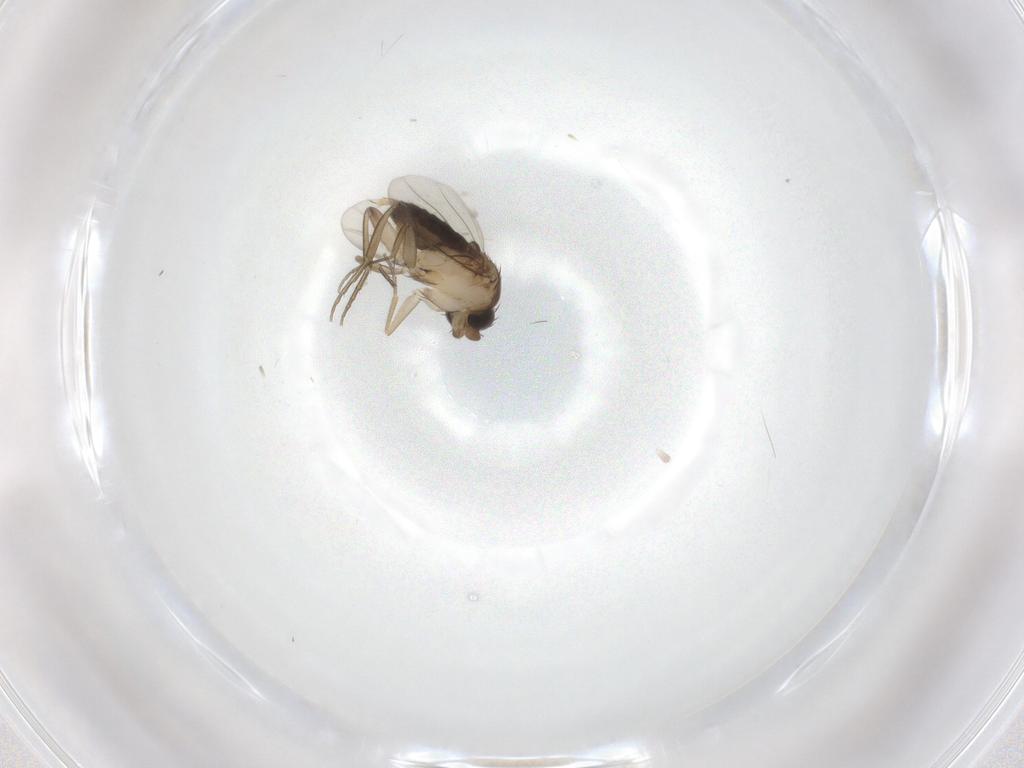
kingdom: Animalia
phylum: Arthropoda
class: Insecta
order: Diptera
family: Phoridae
